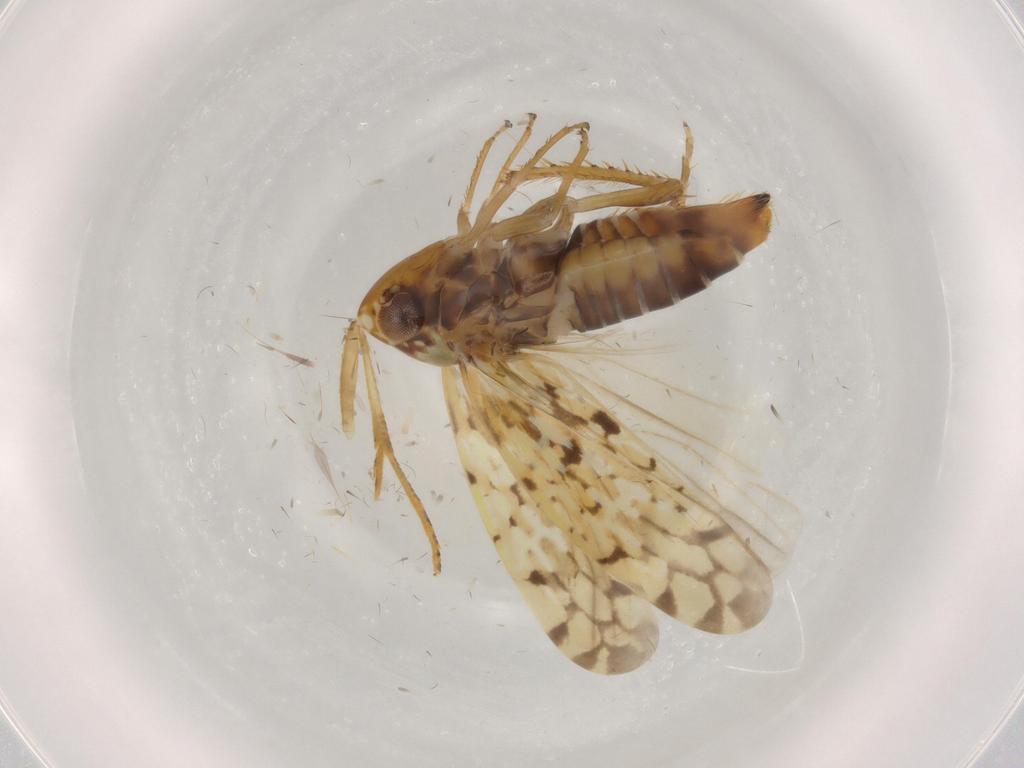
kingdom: Animalia
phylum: Arthropoda
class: Insecta
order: Hemiptera
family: Cicadellidae
